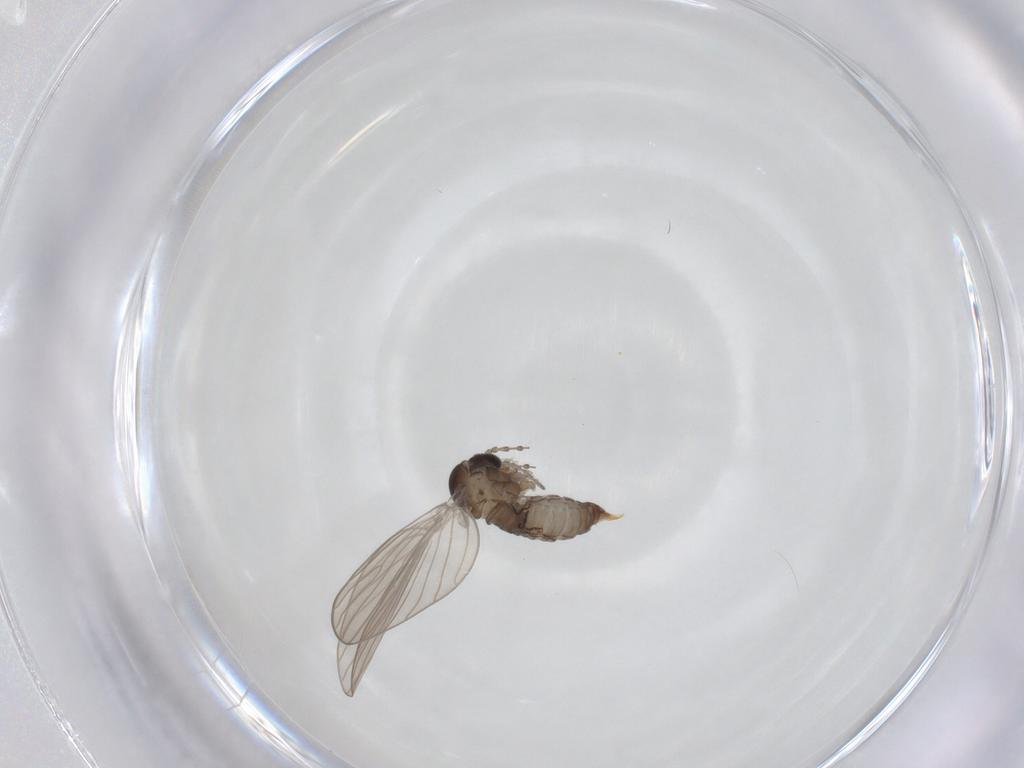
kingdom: Animalia
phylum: Arthropoda
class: Insecta
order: Diptera
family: Psychodidae
